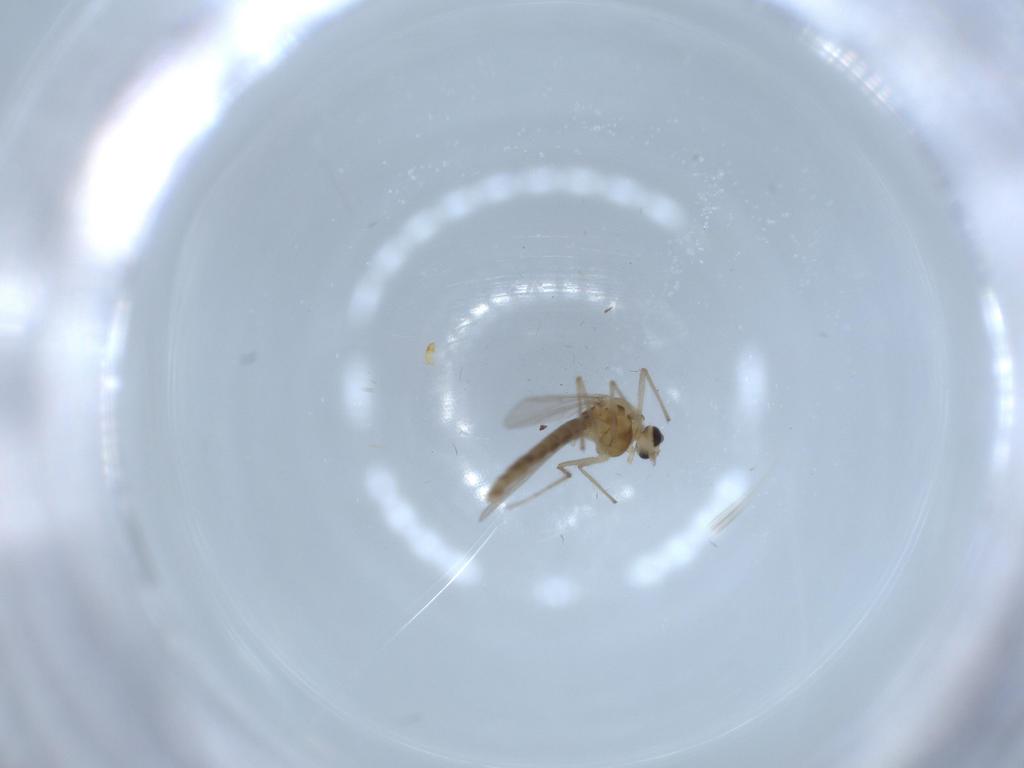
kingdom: Animalia
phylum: Arthropoda
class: Insecta
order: Diptera
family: Chironomidae
